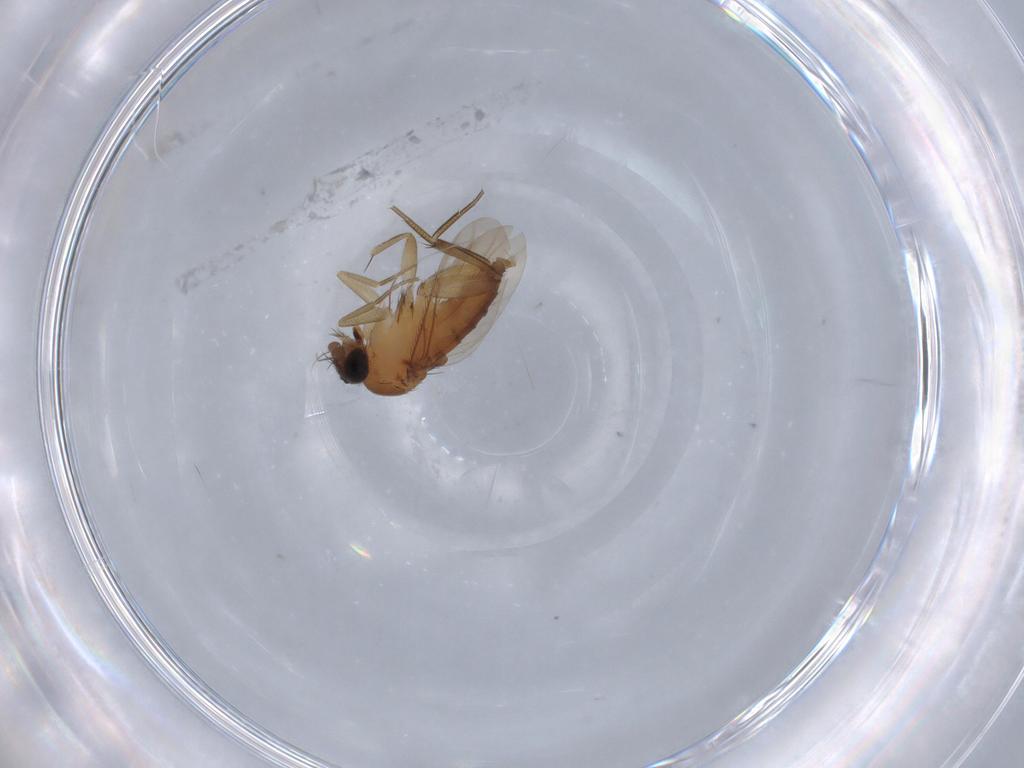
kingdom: Animalia
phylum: Arthropoda
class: Insecta
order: Diptera
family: Phoridae
